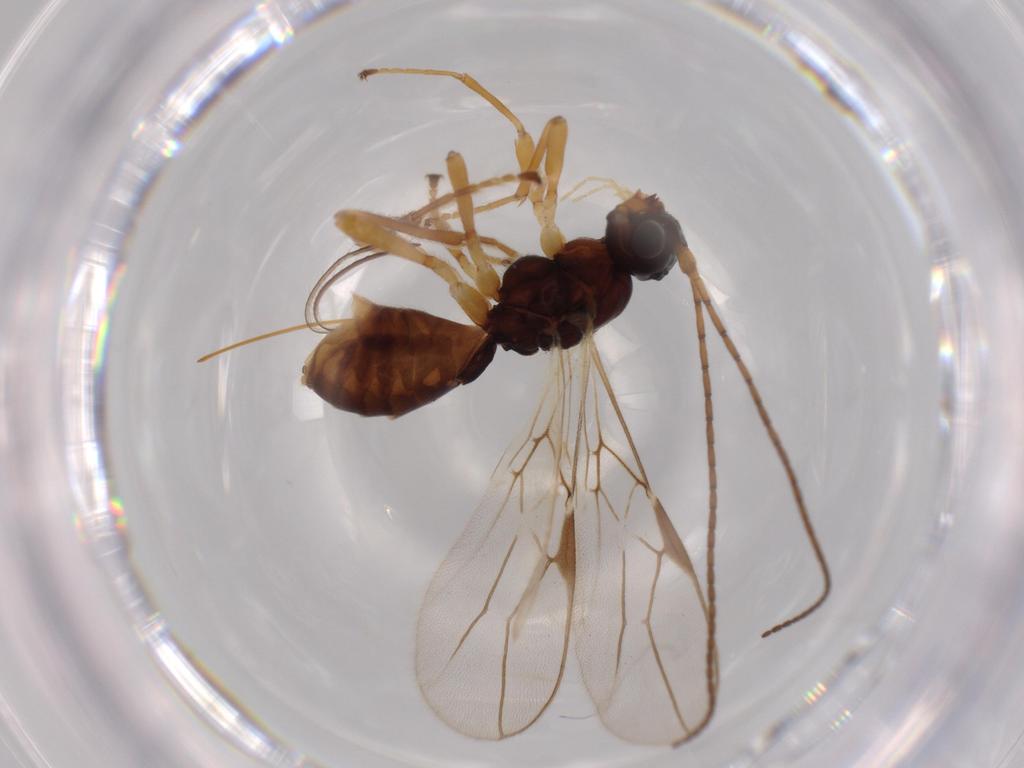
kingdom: Animalia
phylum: Arthropoda
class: Insecta
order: Hymenoptera
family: Braconidae
